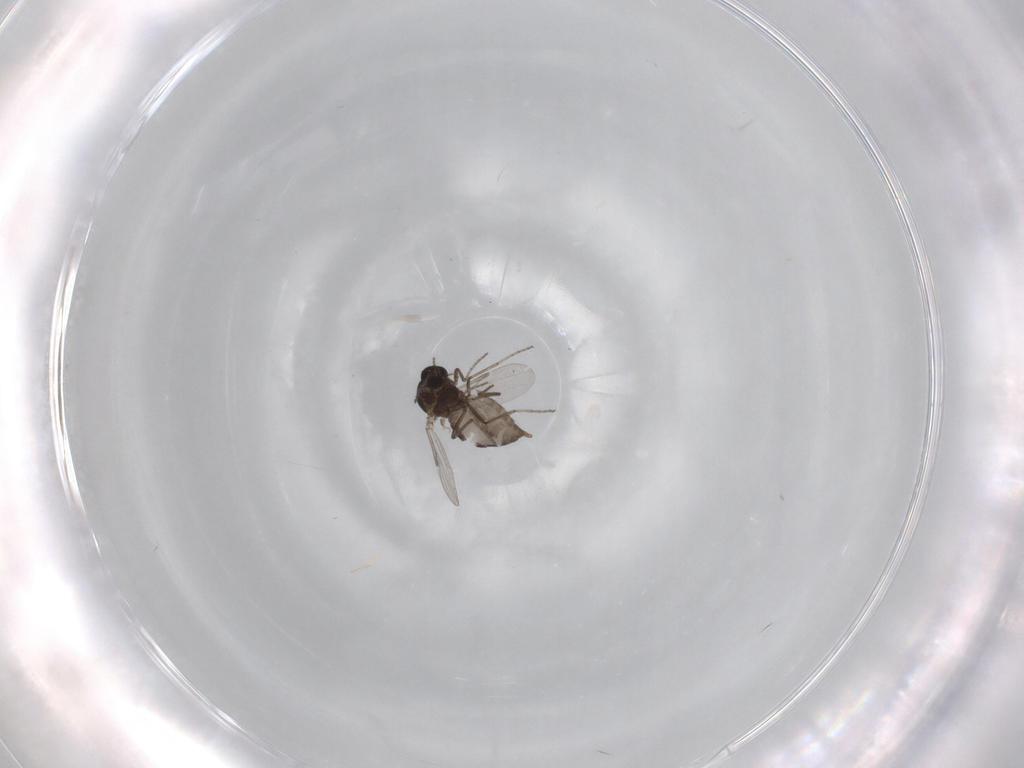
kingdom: Animalia
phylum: Arthropoda
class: Insecta
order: Diptera
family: Ceratopogonidae
